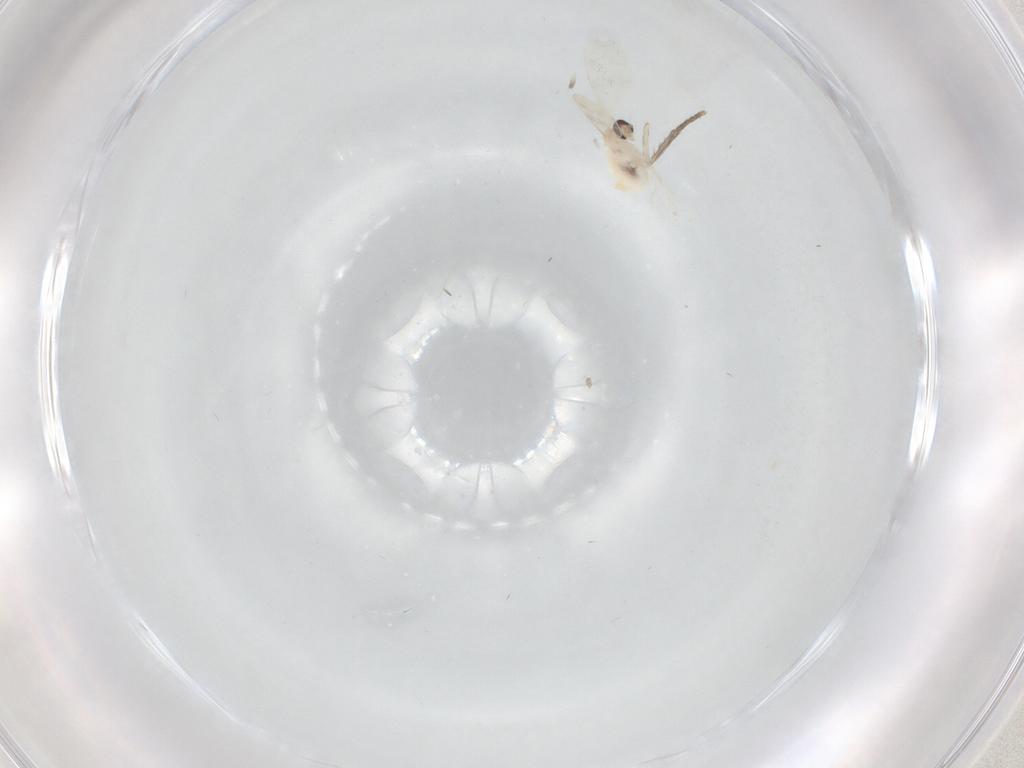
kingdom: Animalia
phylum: Arthropoda
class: Insecta
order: Diptera
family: Cecidomyiidae
